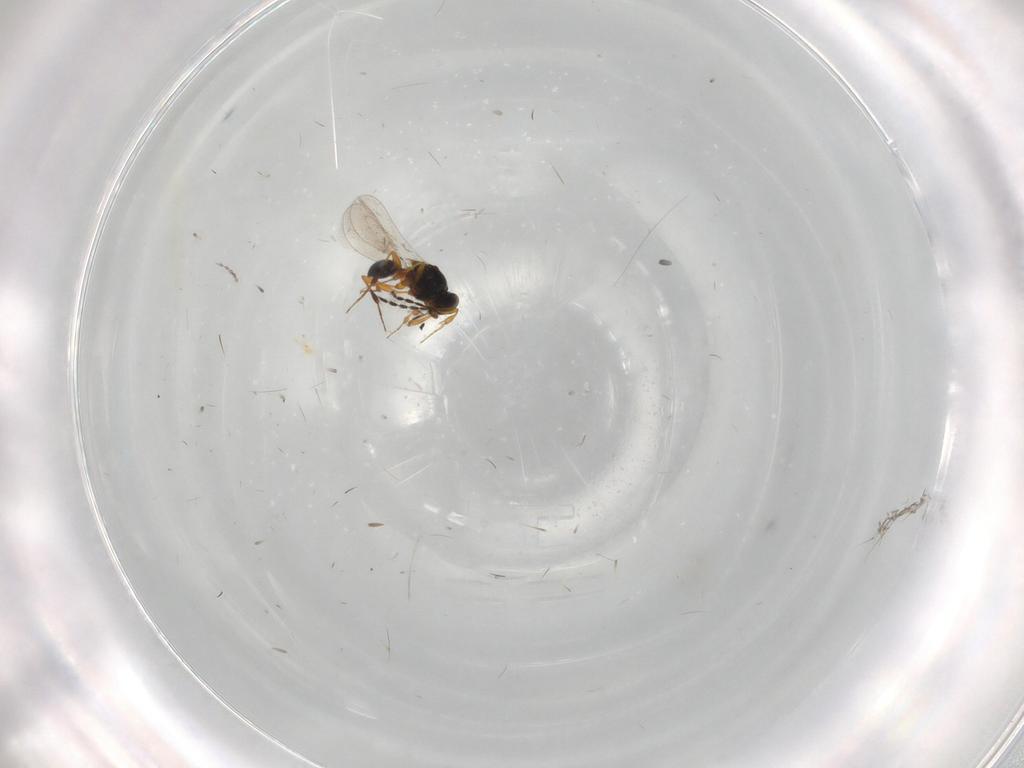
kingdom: Animalia
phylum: Arthropoda
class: Insecta
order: Hymenoptera
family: Platygastridae
